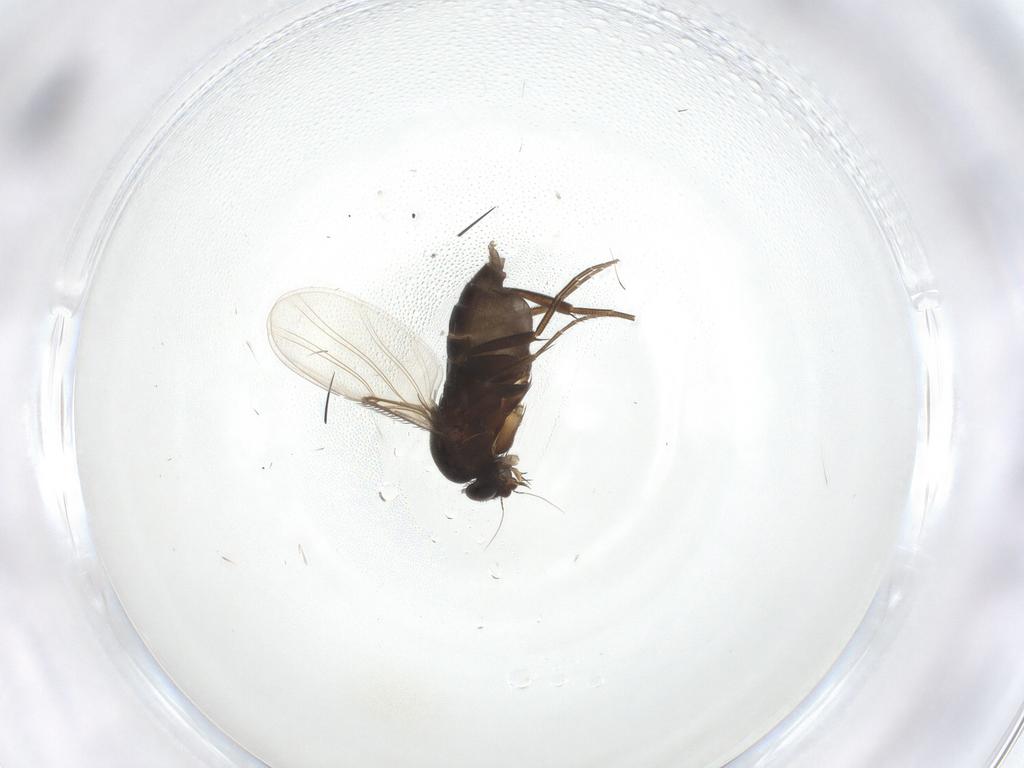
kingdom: Animalia
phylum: Arthropoda
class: Insecta
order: Diptera
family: Phoridae
